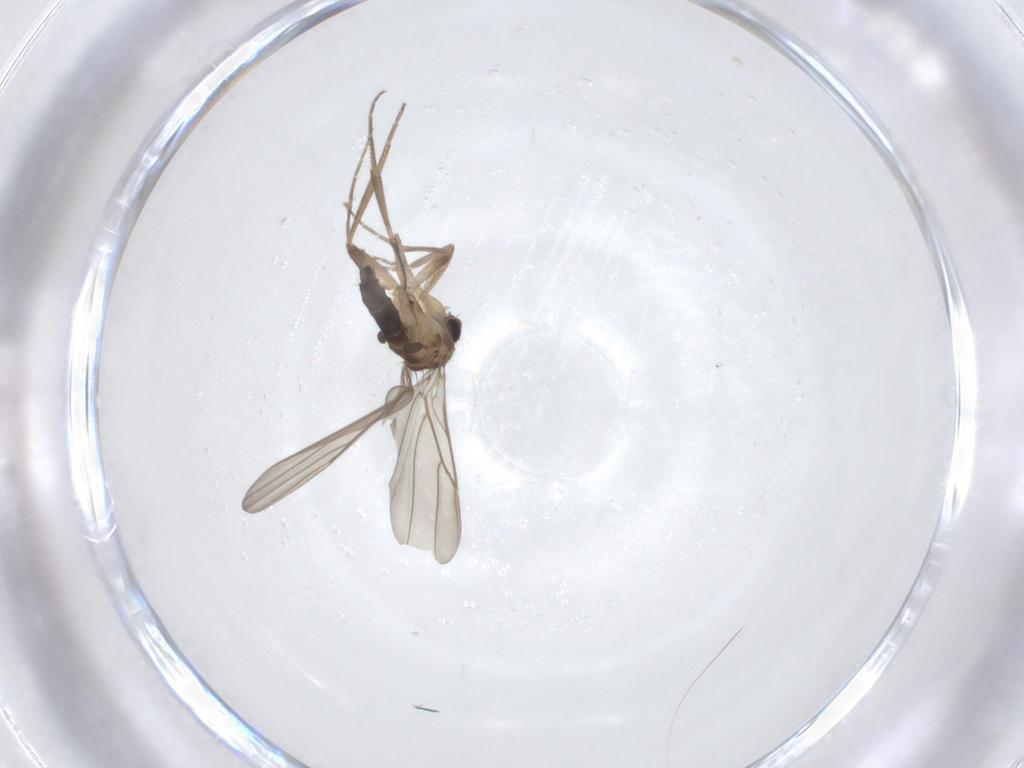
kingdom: Animalia
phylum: Arthropoda
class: Insecta
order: Diptera
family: Phoridae
